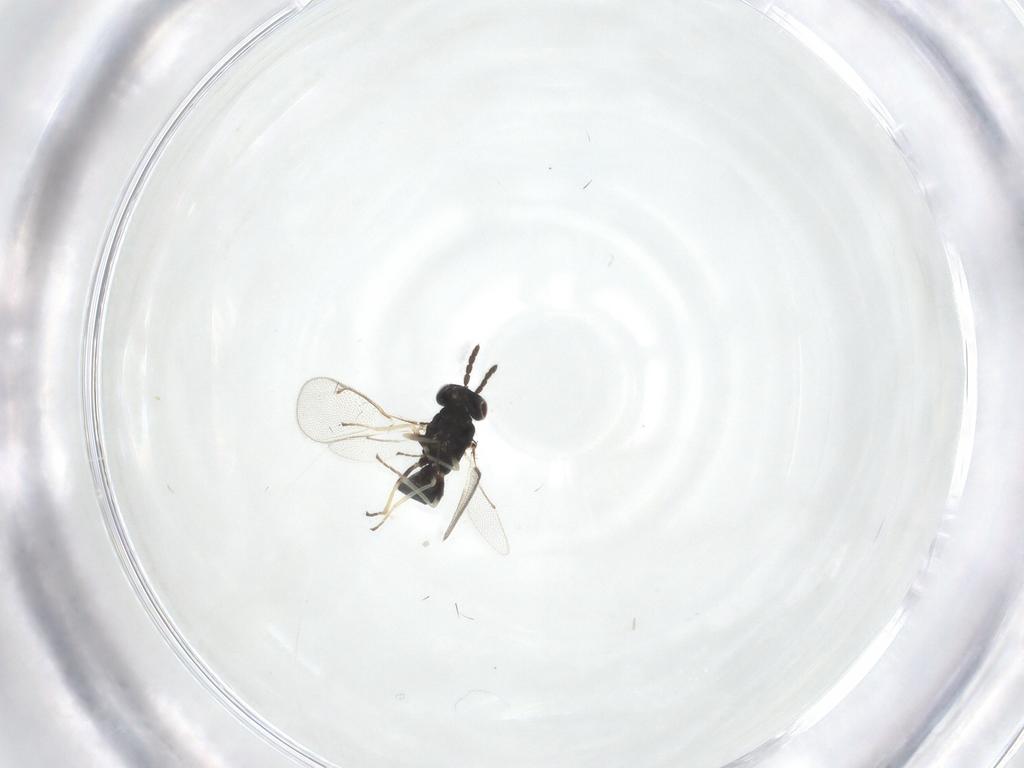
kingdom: Animalia
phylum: Arthropoda
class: Insecta
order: Hymenoptera
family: Eulophidae
